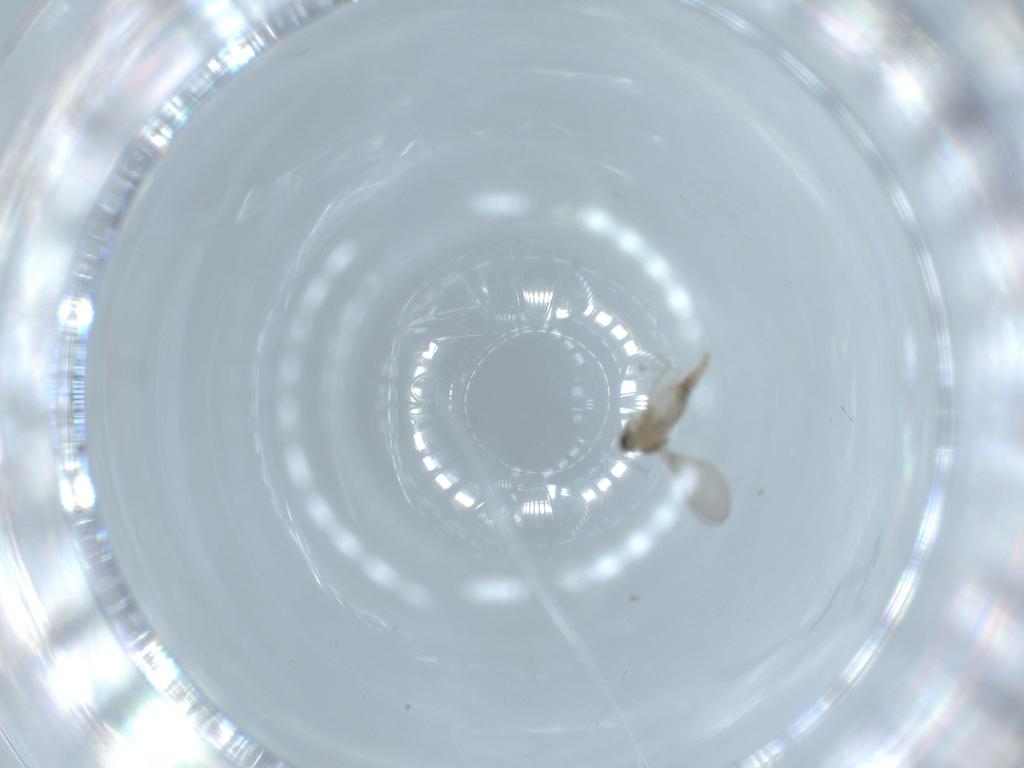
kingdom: Animalia
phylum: Arthropoda
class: Insecta
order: Diptera
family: Cecidomyiidae
